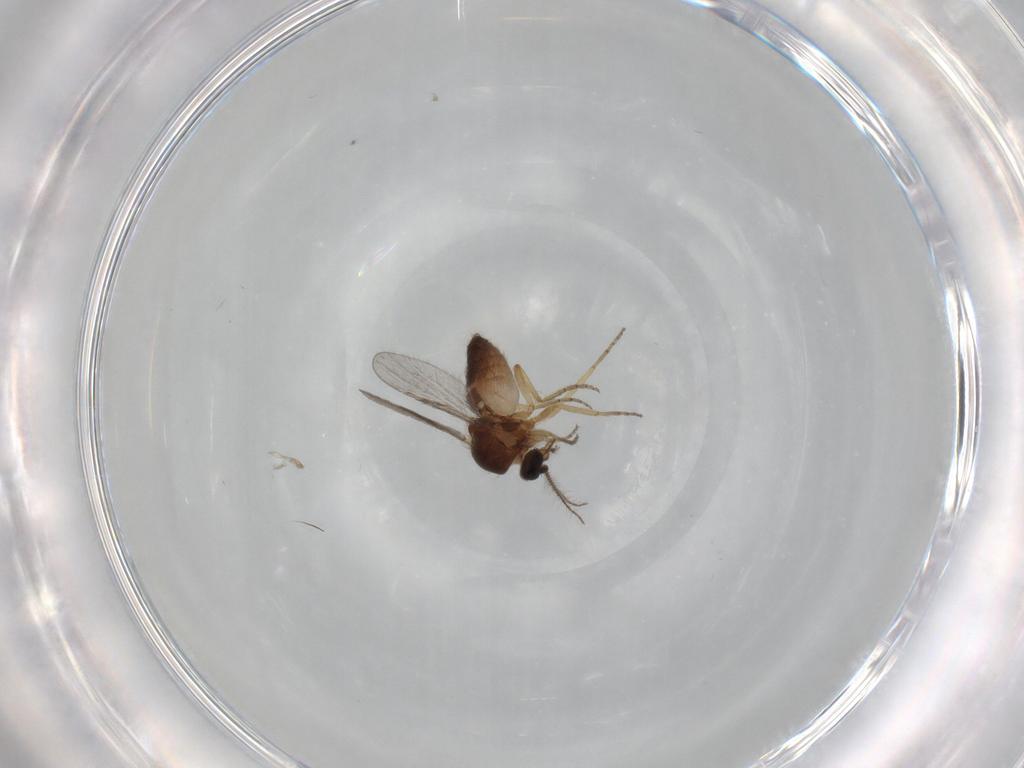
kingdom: Animalia
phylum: Arthropoda
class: Insecta
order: Diptera
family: Ceratopogonidae
